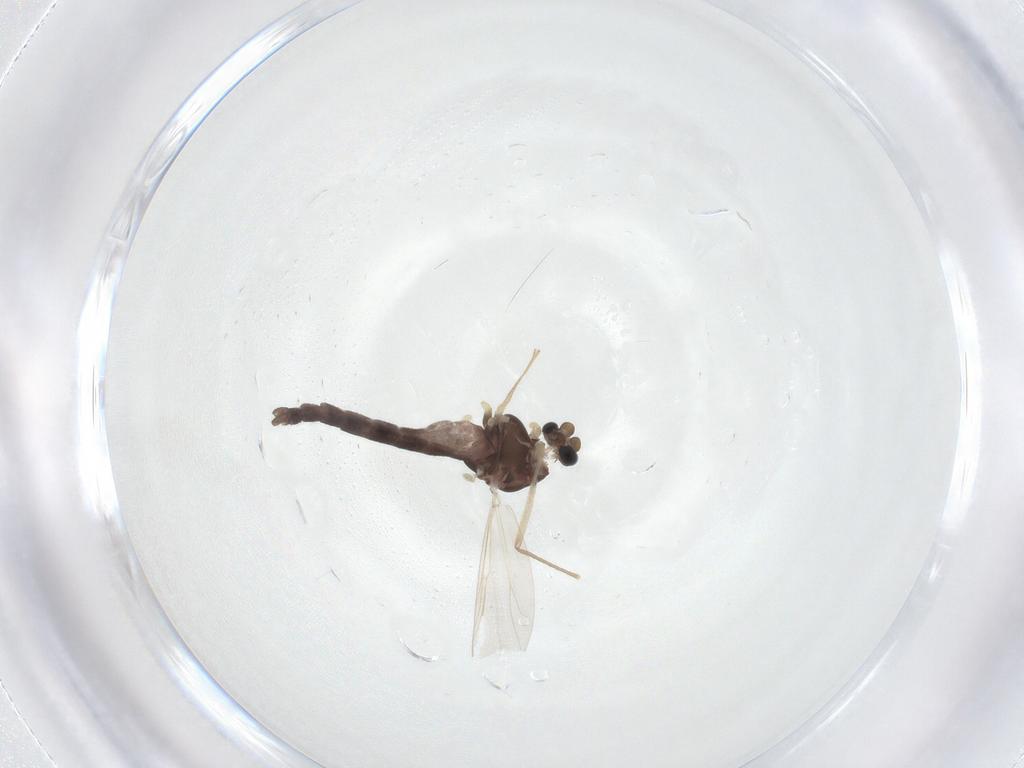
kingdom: Animalia
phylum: Arthropoda
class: Insecta
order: Diptera
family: Chironomidae
